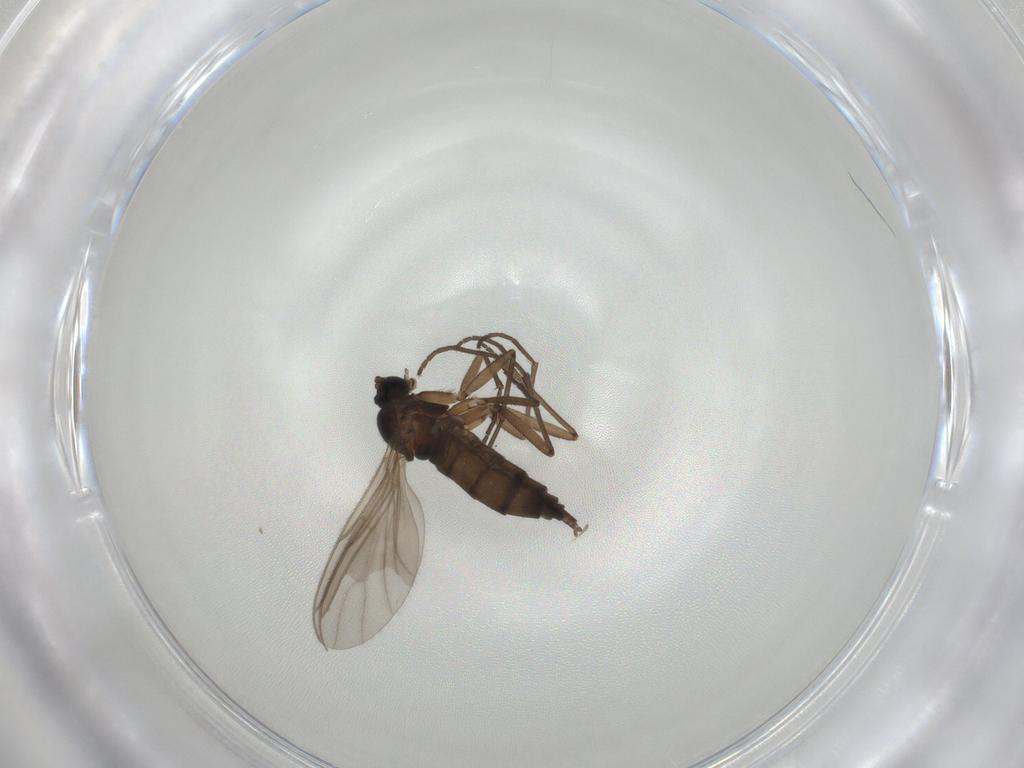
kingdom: Animalia
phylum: Arthropoda
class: Insecta
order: Diptera
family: Sciaridae
